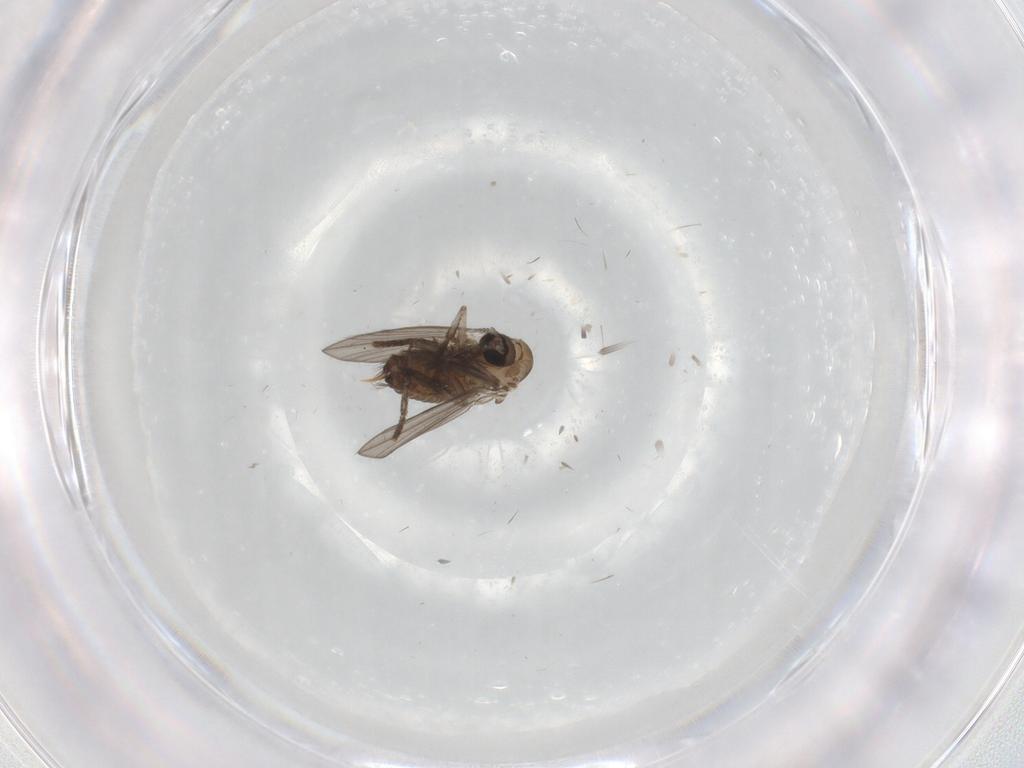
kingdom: Animalia
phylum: Arthropoda
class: Insecta
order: Diptera
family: Psychodidae
